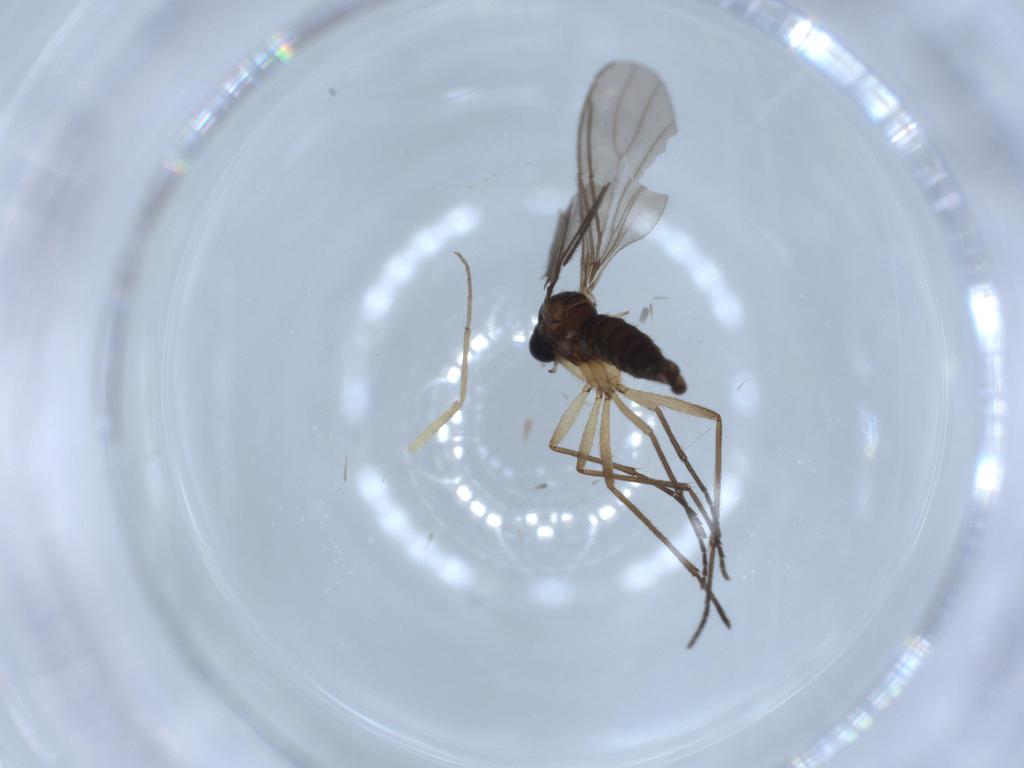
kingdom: Animalia
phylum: Arthropoda
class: Insecta
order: Diptera
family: Chironomidae
